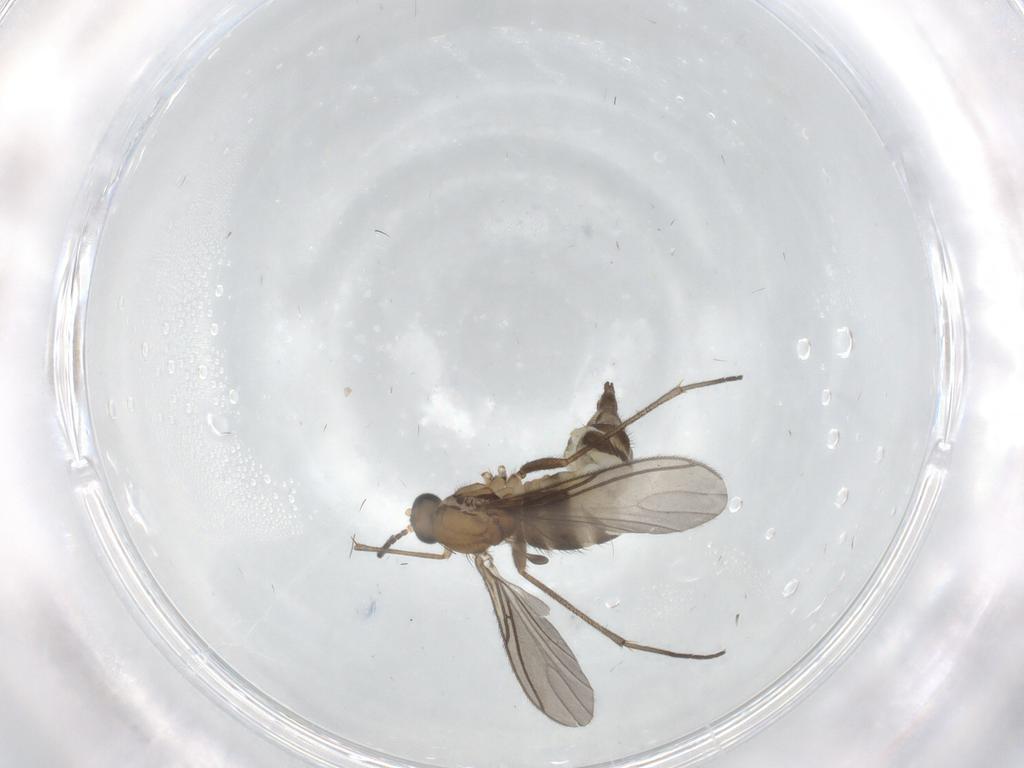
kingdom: Animalia
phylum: Arthropoda
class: Insecta
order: Diptera
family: Sciaridae
